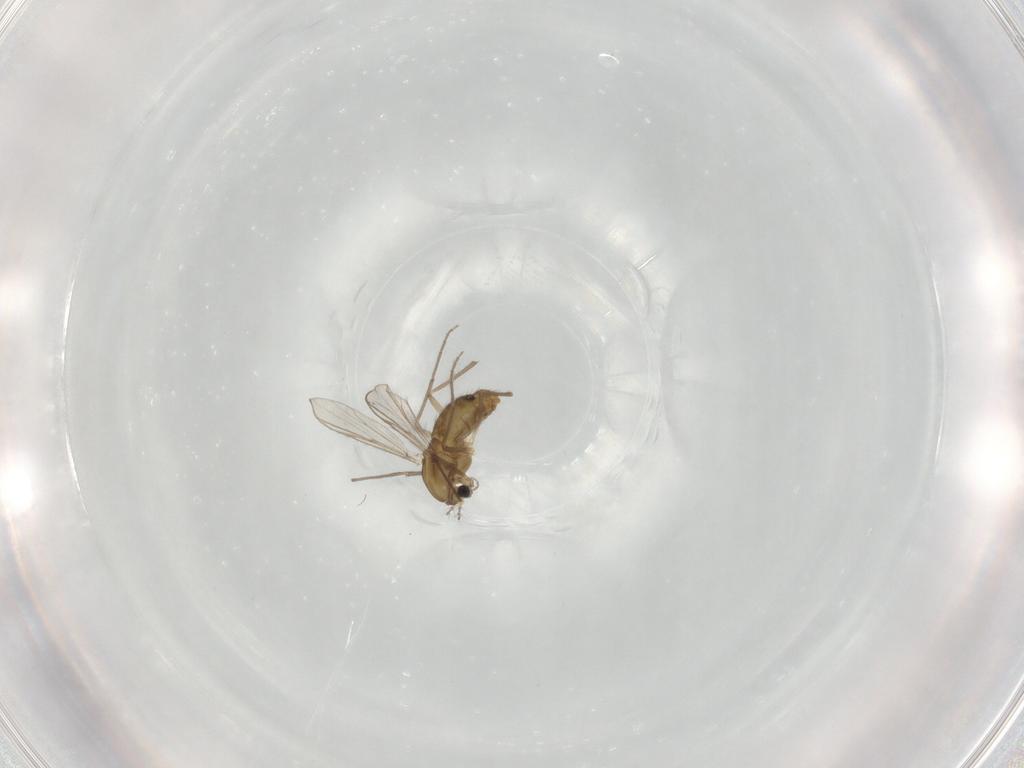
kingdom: Animalia
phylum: Arthropoda
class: Insecta
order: Diptera
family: Chironomidae
